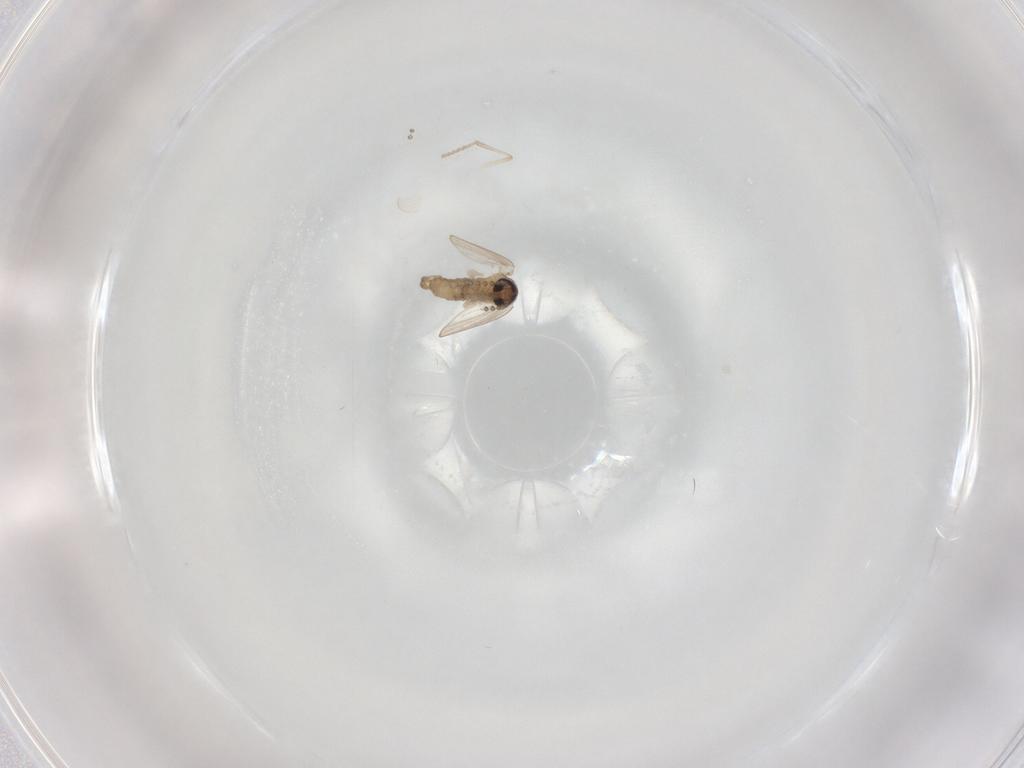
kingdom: Animalia
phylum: Arthropoda
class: Insecta
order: Diptera
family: Psychodidae
